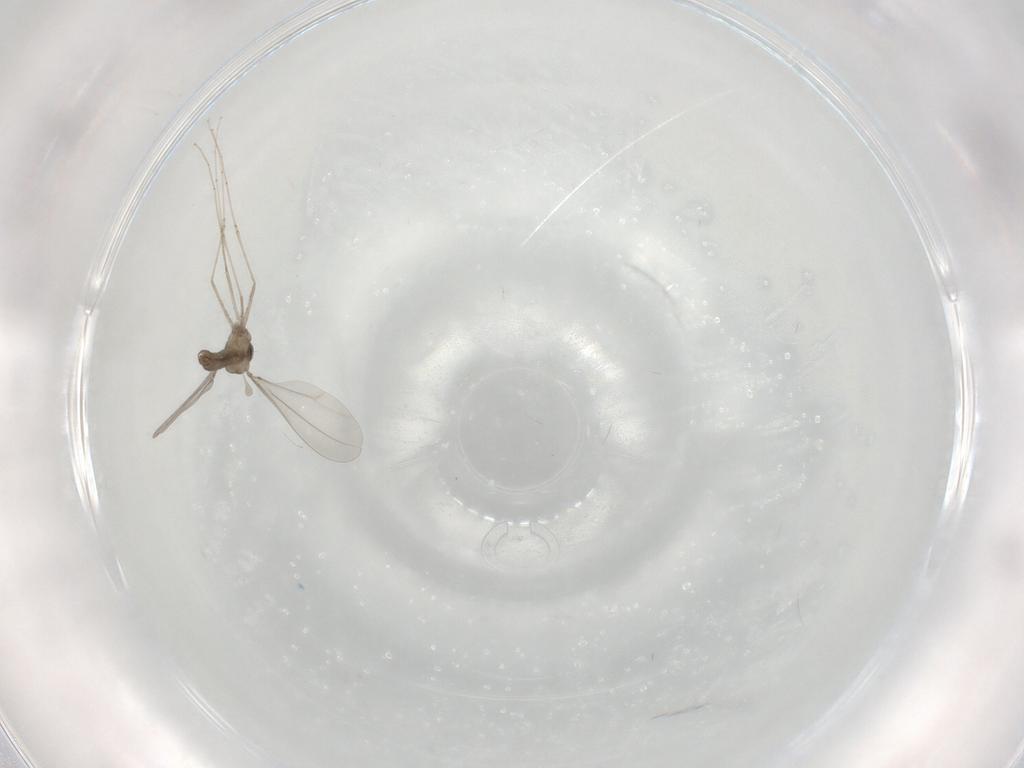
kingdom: Animalia
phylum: Arthropoda
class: Insecta
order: Diptera
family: Cecidomyiidae
